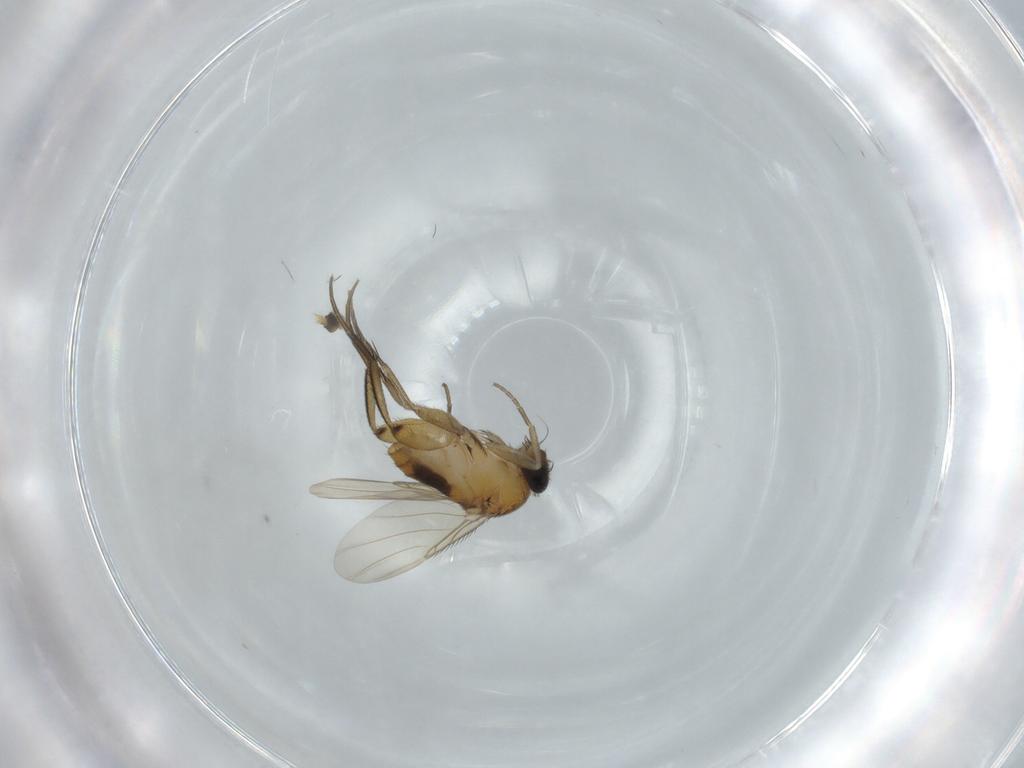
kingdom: Animalia
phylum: Arthropoda
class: Insecta
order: Diptera
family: Phoridae
